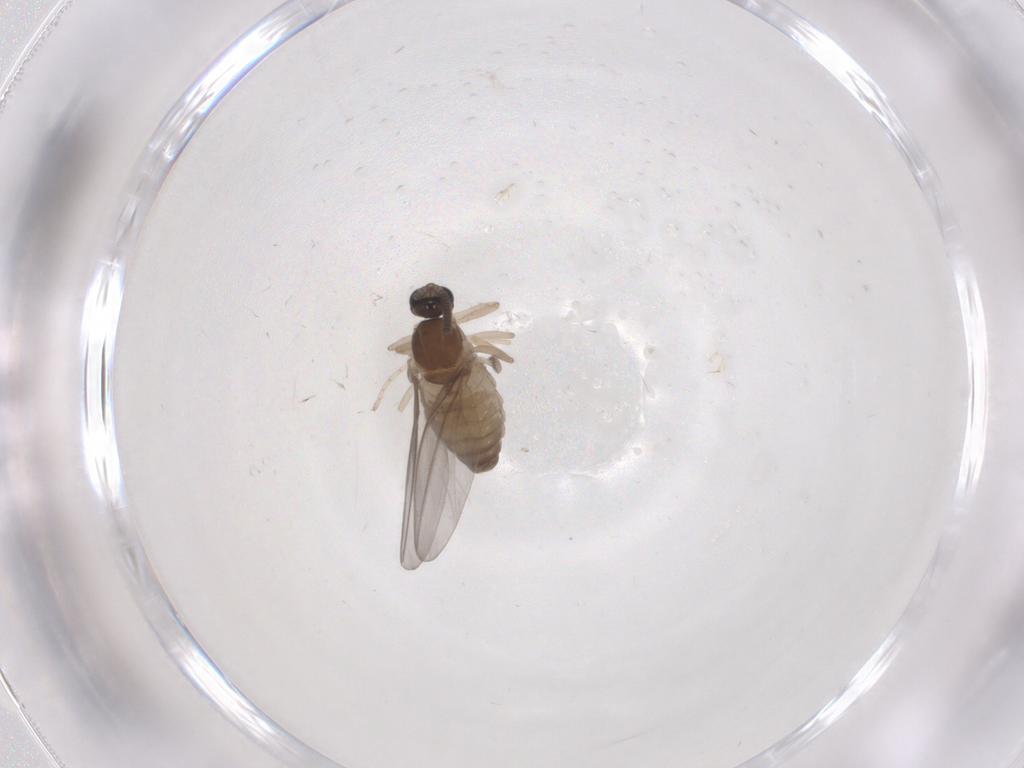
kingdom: Animalia
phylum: Arthropoda
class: Insecta
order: Diptera
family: Cecidomyiidae
